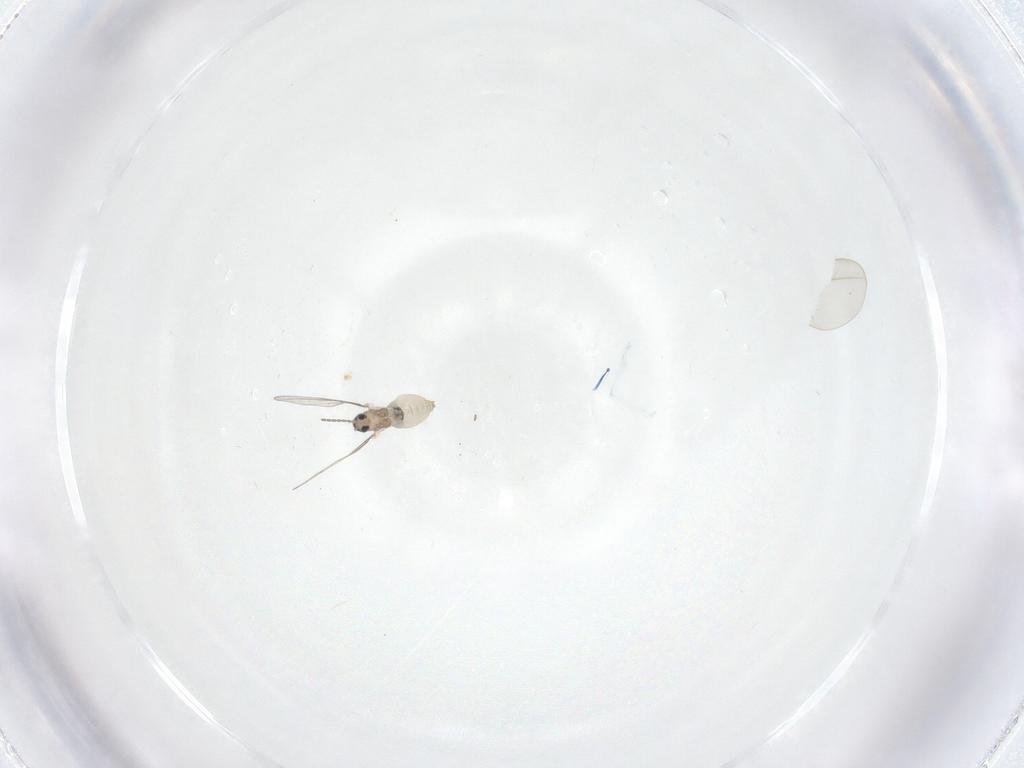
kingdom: Animalia
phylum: Arthropoda
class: Insecta
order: Diptera
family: Cecidomyiidae
